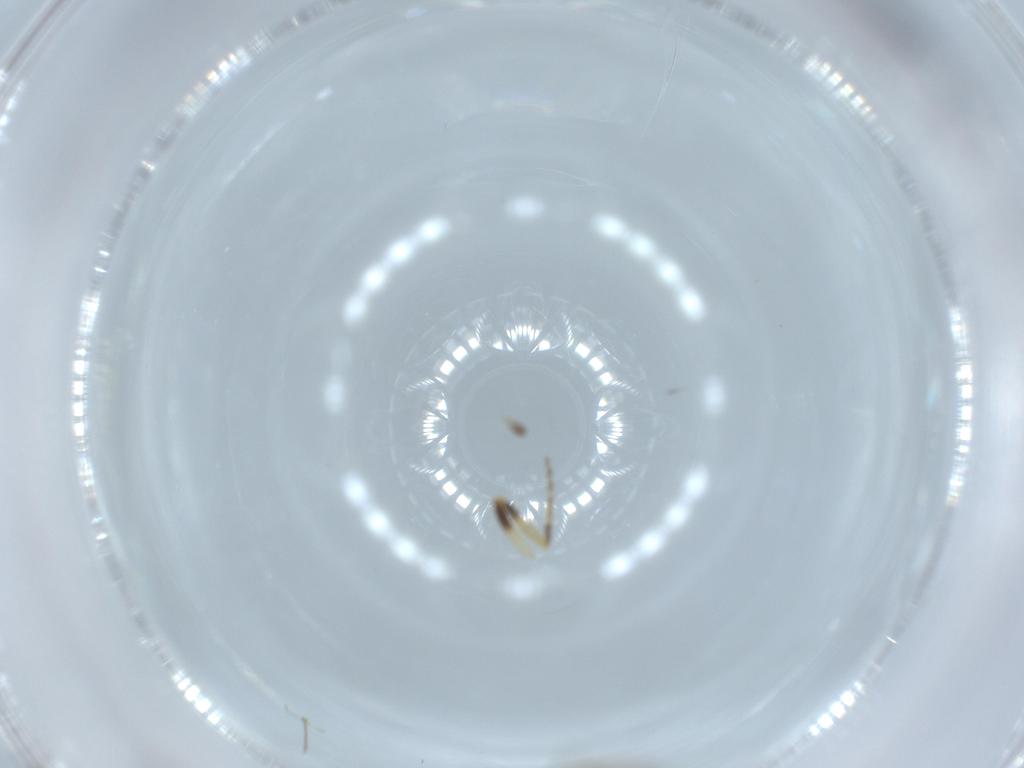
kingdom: Animalia
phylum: Arthropoda
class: Insecta
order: Diptera
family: Ceratopogonidae
